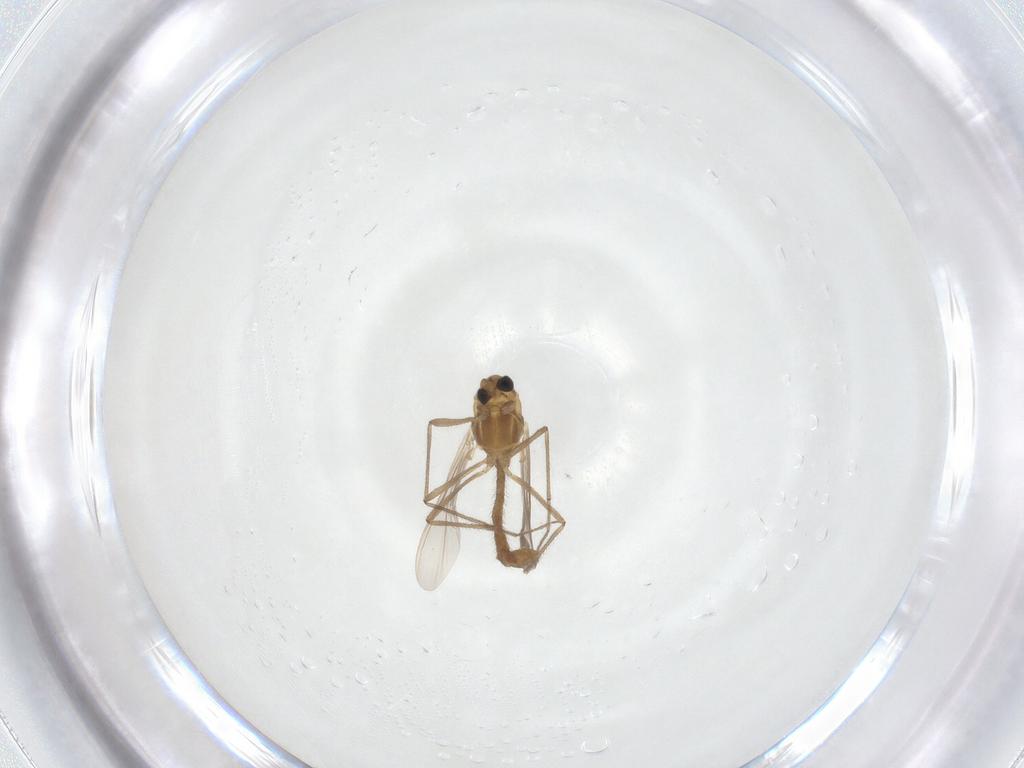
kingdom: Animalia
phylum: Arthropoda
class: Insecta
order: Diptera
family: Chironomidae
